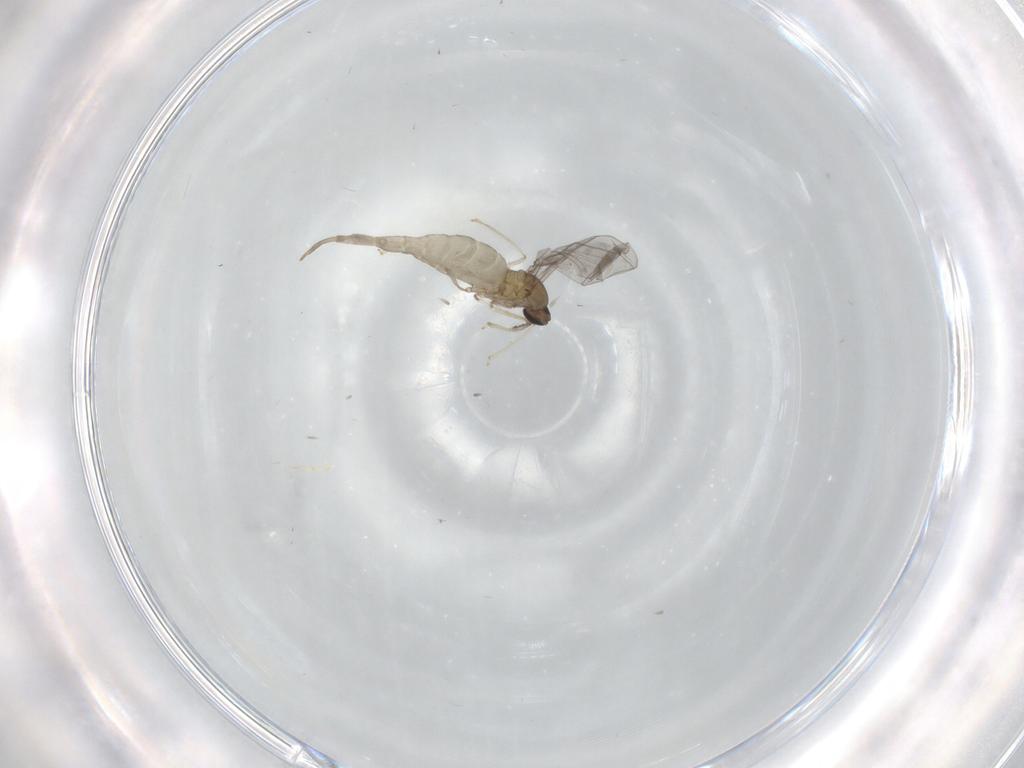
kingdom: Animalia
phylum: Arthropoda
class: Insecta
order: Diptera
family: Cecidomyiidae
